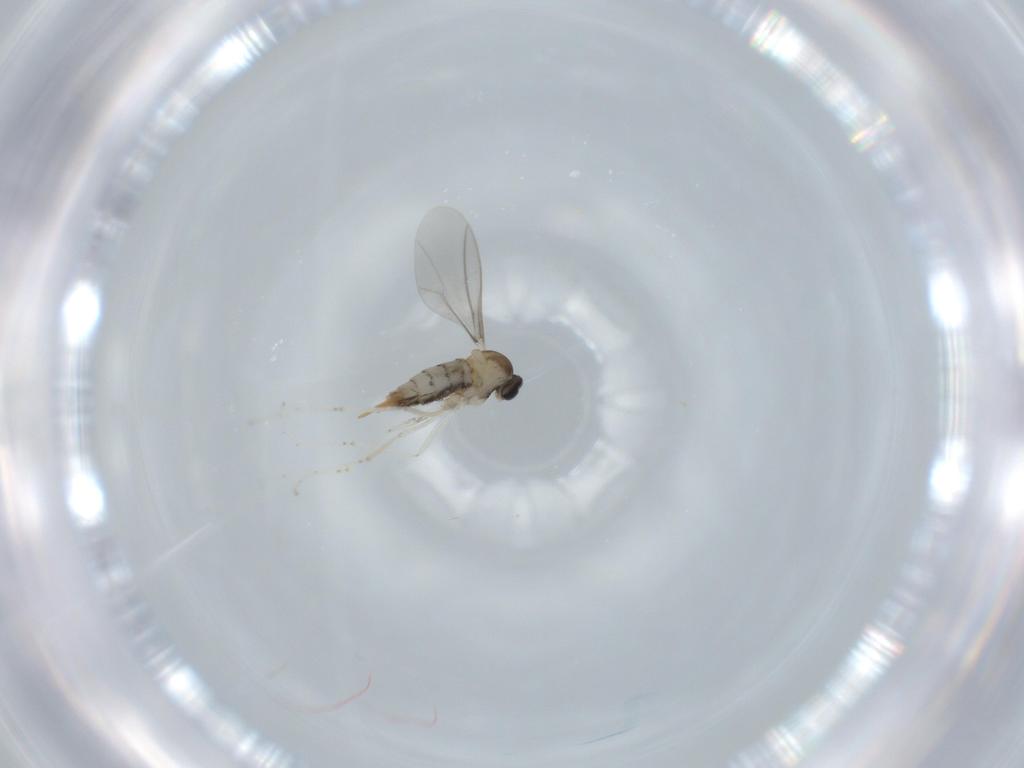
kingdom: Animalia
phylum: Arthropoda
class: Insecta
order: Diptera
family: Cecidomyiidae
